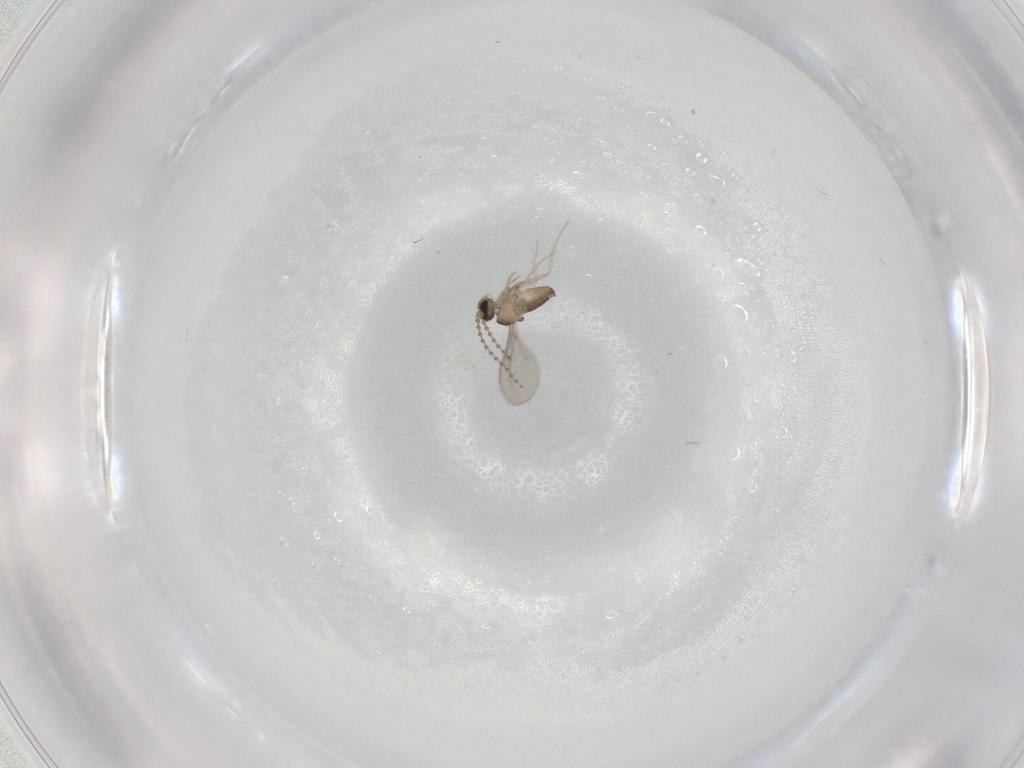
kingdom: Animalia
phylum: Arthropoda
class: Insecta
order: Diptera
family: Cecidomyiidae
